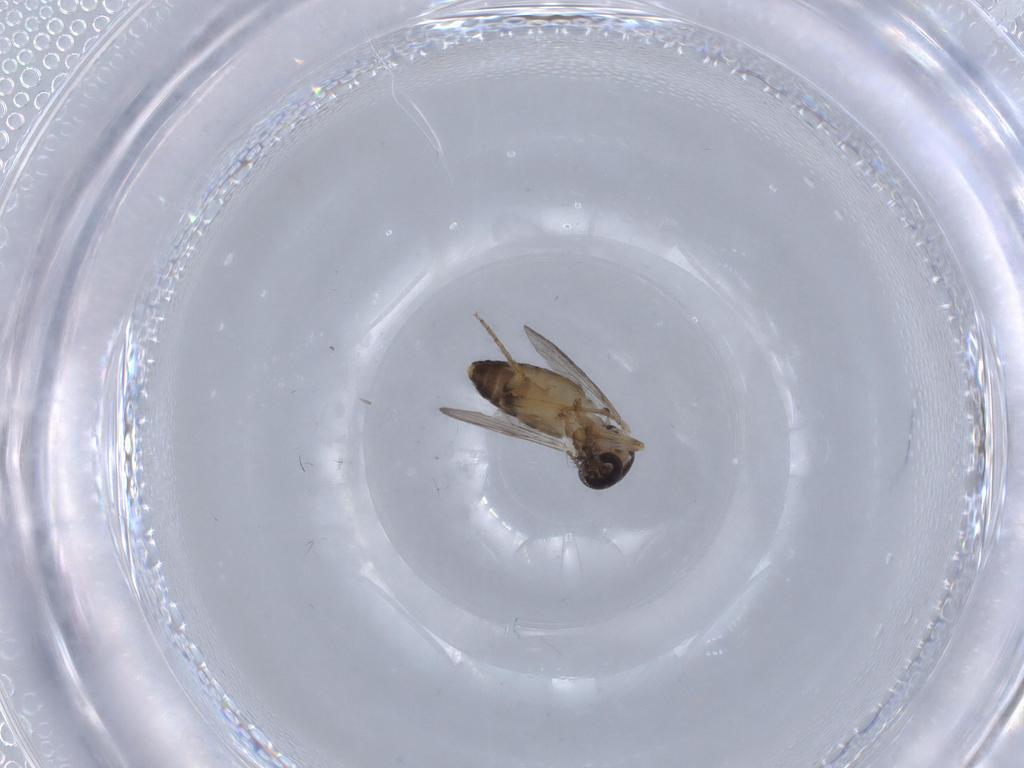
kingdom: Animalia
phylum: Arthropoda
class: Insecta
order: Diptera
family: Ceratopogonidae
